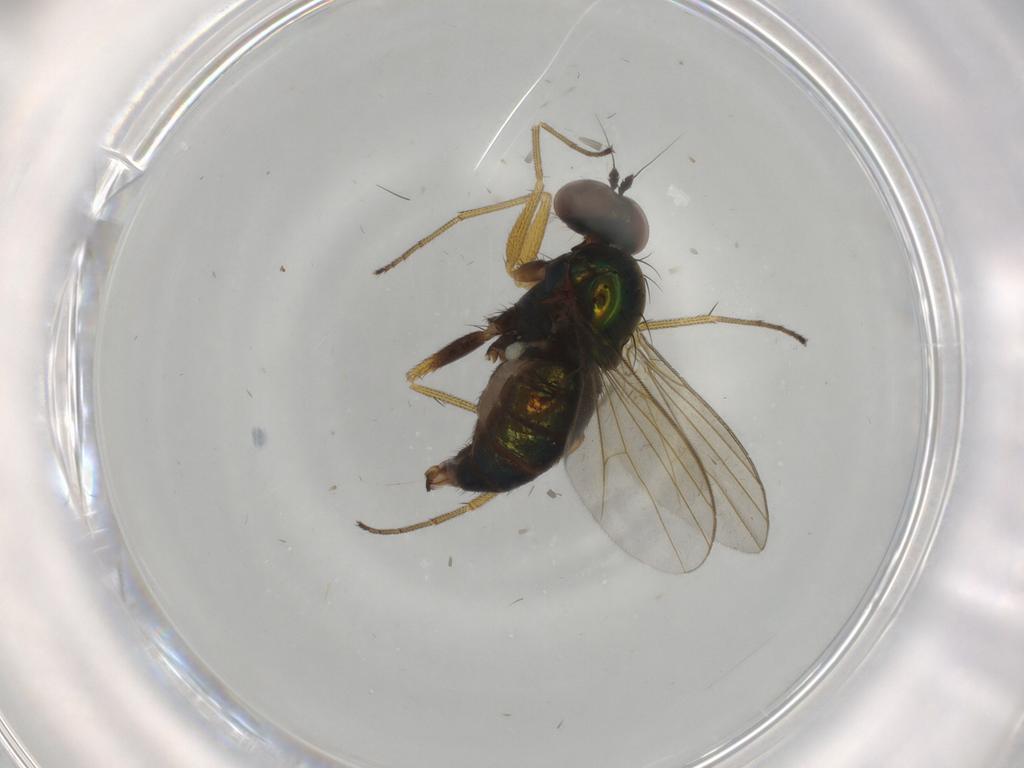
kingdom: Animalia
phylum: Arthropoda
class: Insecta
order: Diptera
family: Dolichopodidae
